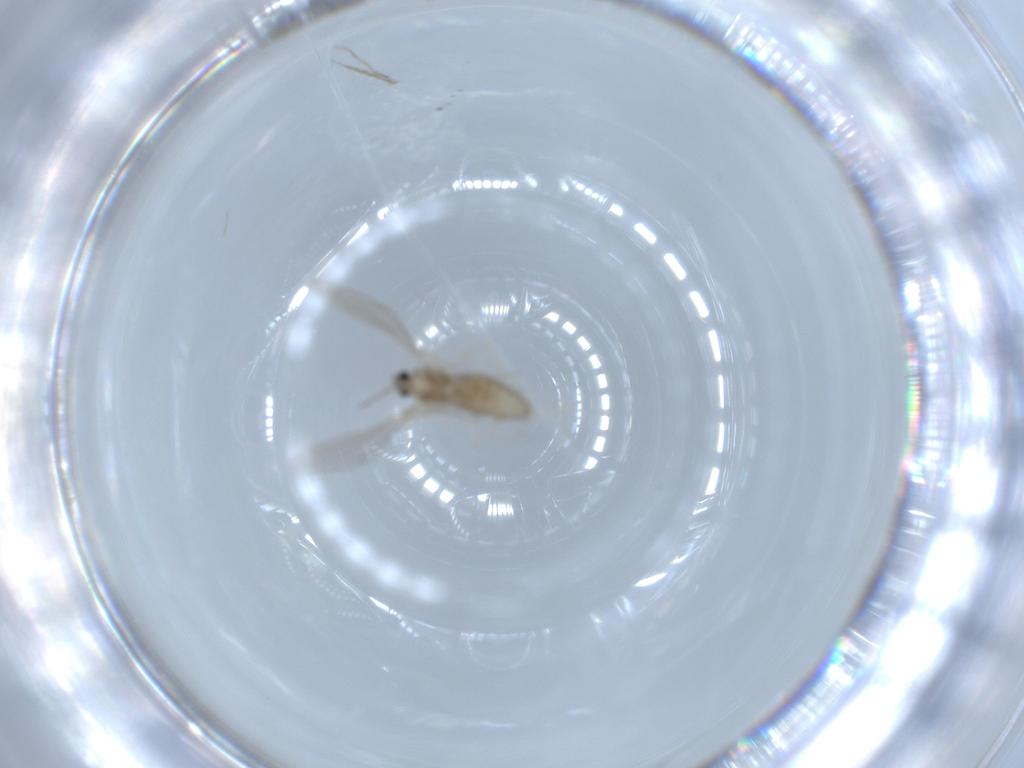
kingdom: Animalia
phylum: Arthropoda
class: Insecta
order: Diptera
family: Cecidomyiidae
